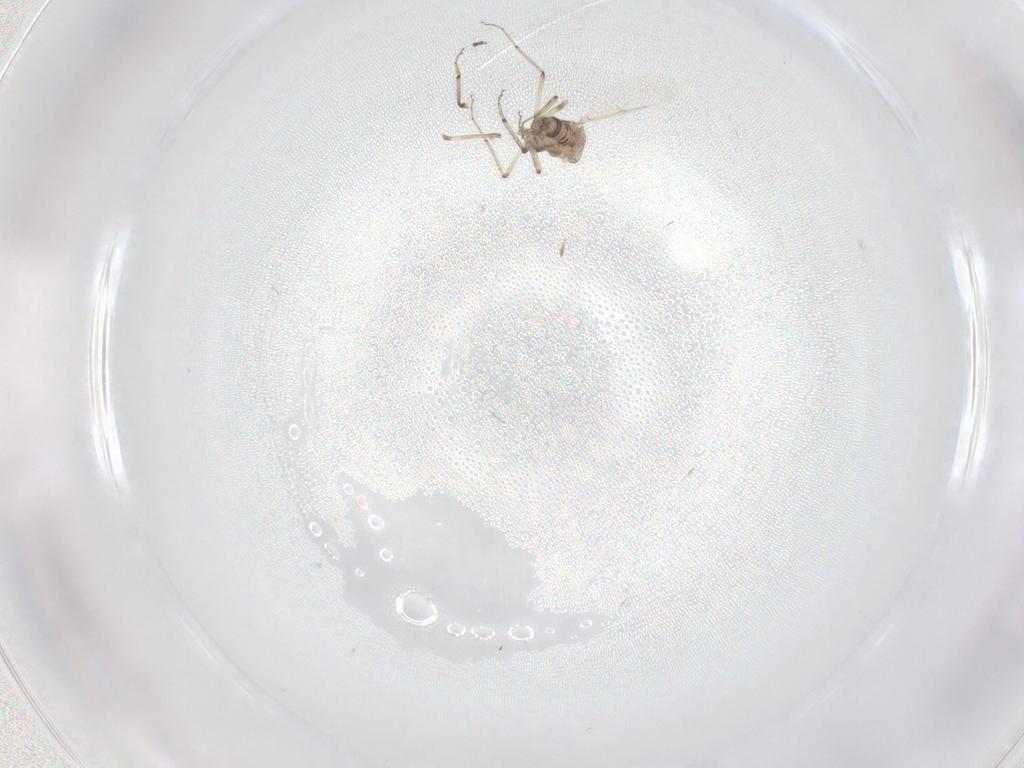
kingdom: Animalia
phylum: Arthropoda
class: Insecta
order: Diptera
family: Ceratopogonidae
